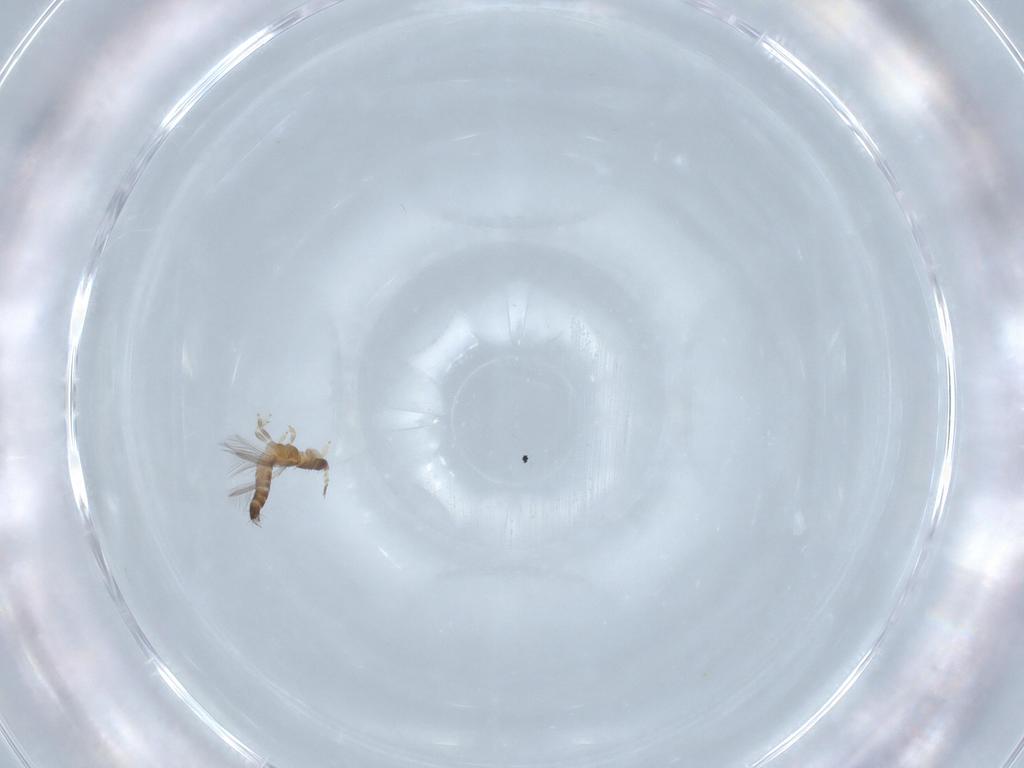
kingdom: Animalia
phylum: Arthropoda
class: Insecta
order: Thysanoptera
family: Thripidae
